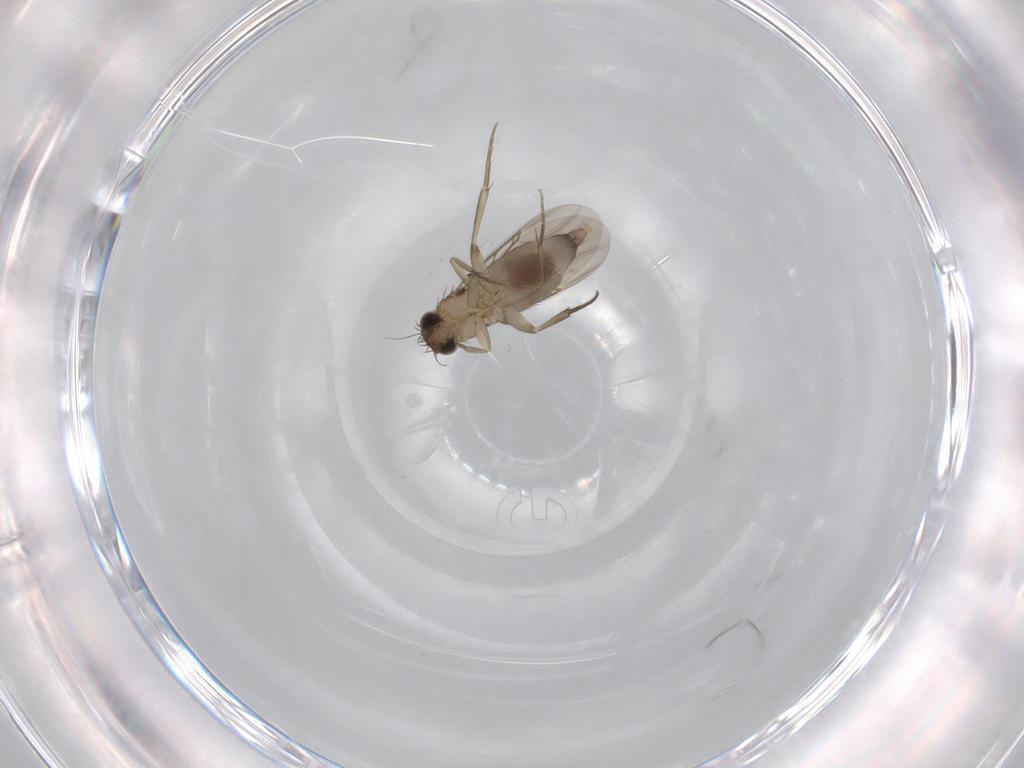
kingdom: Animalia
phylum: Arthropoda
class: Insecta
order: Diptera
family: Phoridae
